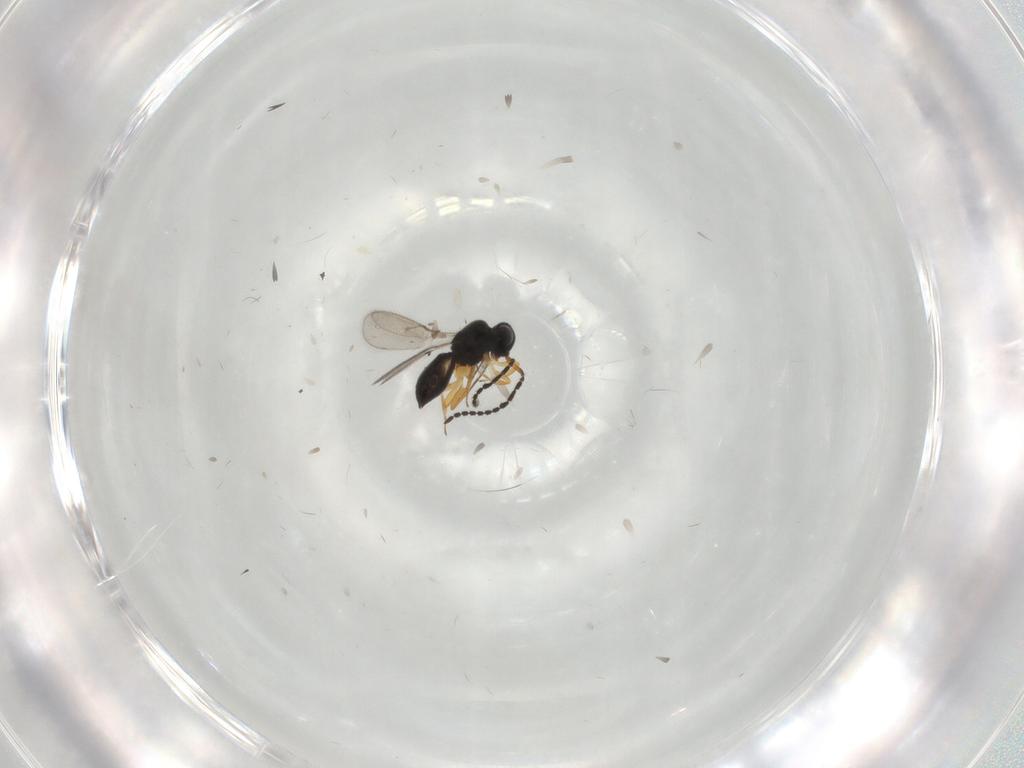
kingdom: Animalia
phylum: Arthropoda
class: Insecta
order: Hymenoptera
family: Scelionidae
